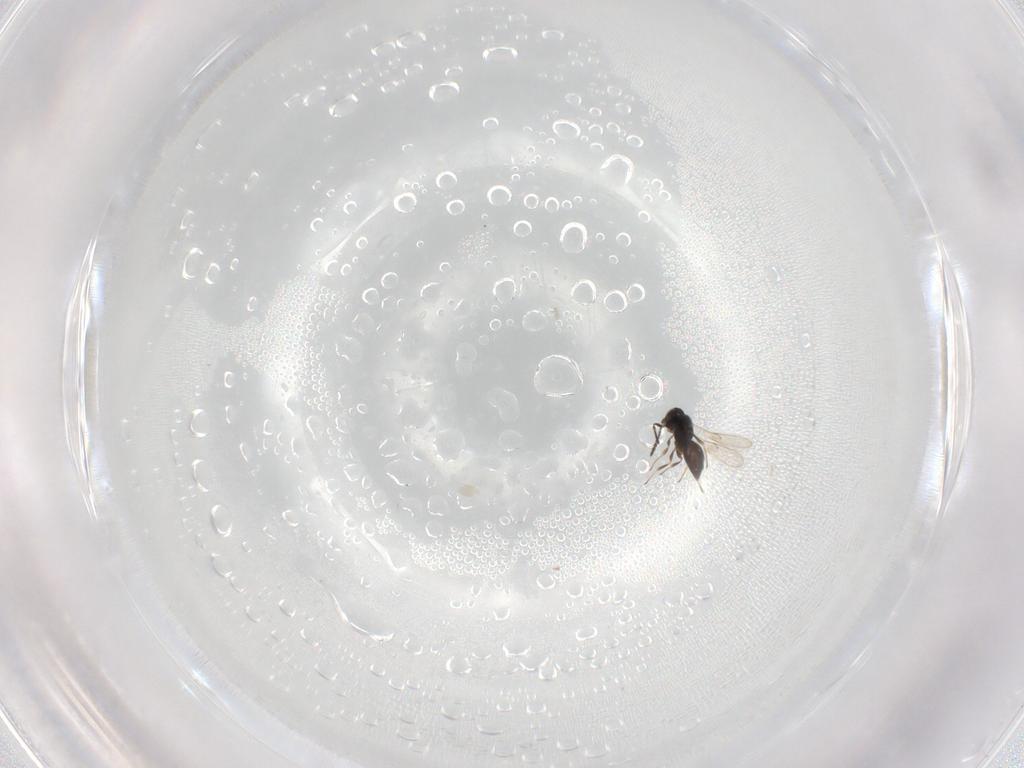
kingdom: Animalia
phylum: Arthropoda
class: Insecta
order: Hymenoptera
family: Scelionidae
